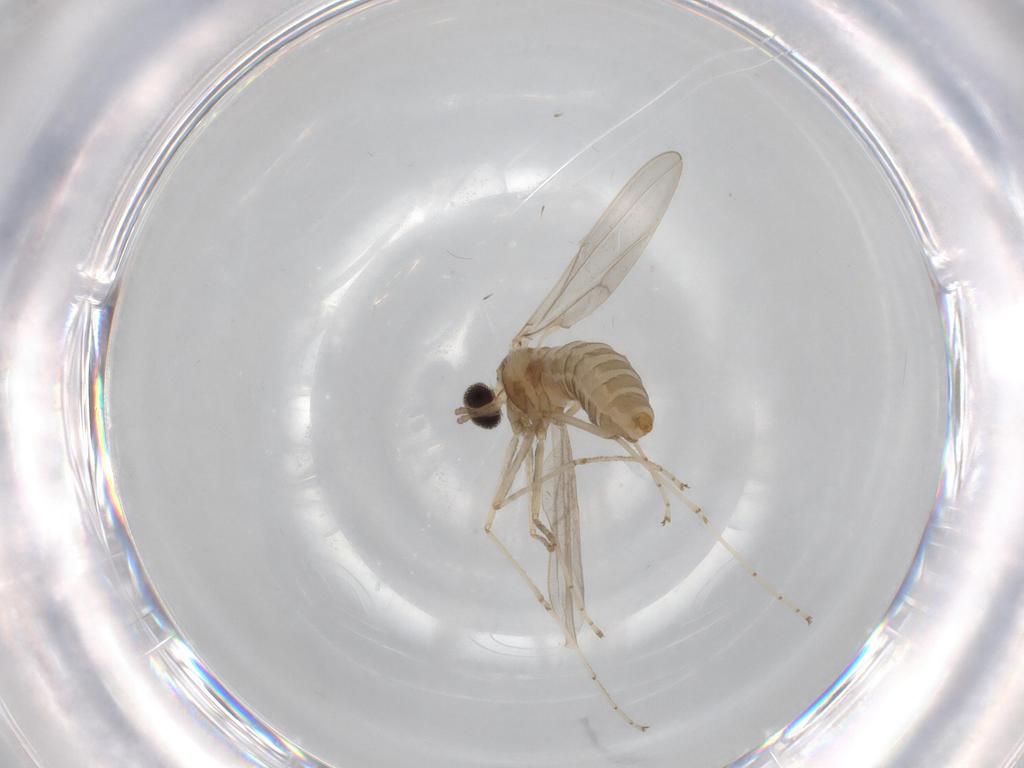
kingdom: Animalia
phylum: Arthropoda
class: Insecta
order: Diptera
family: Cecidomyiidae
